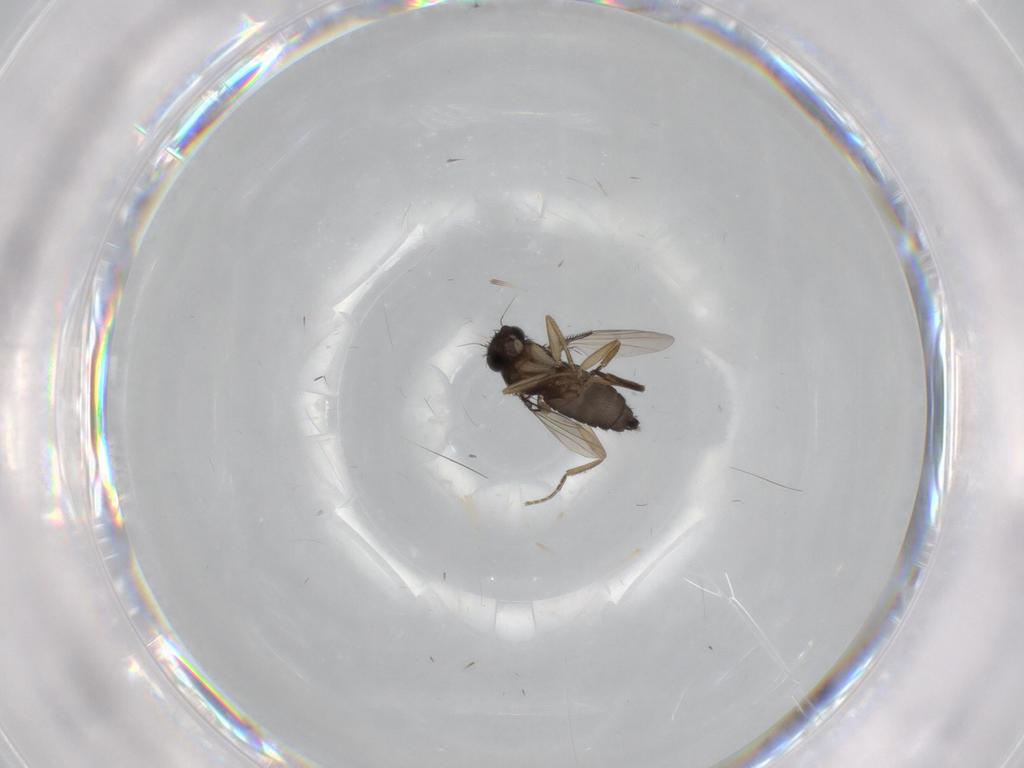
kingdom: Animalia
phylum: Arthropoda
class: Insecta
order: Diptera
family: Phoridae
